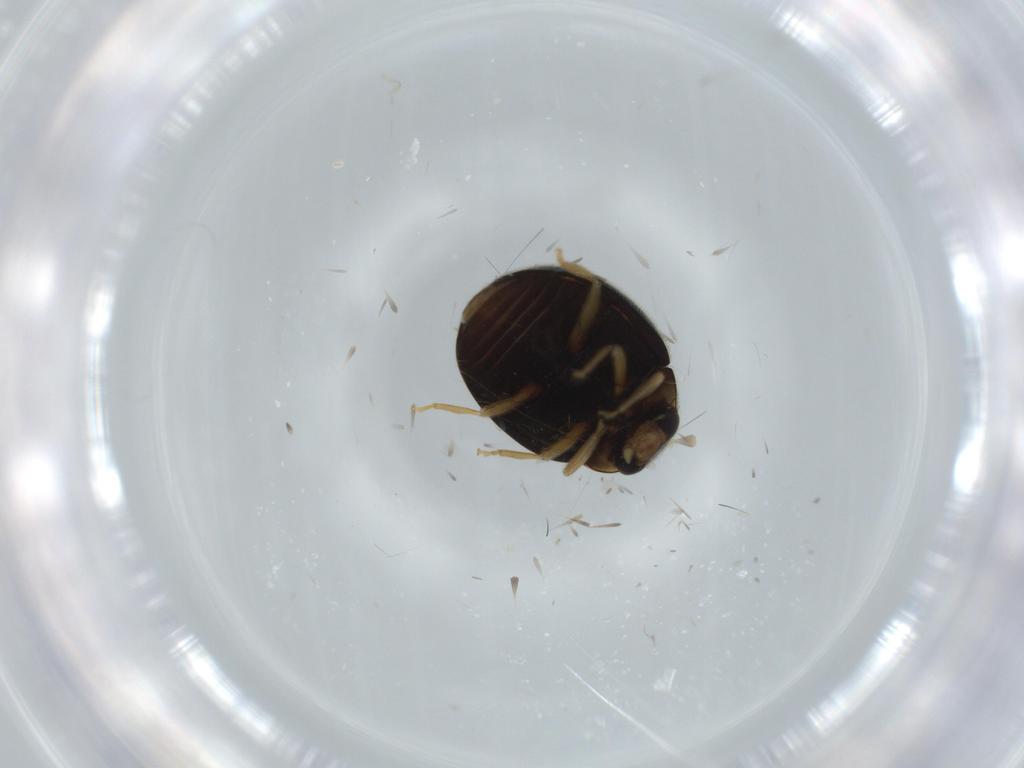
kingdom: Animalia
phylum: Arthropoda
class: Insecta
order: Coleoptera
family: Coccinellidae
